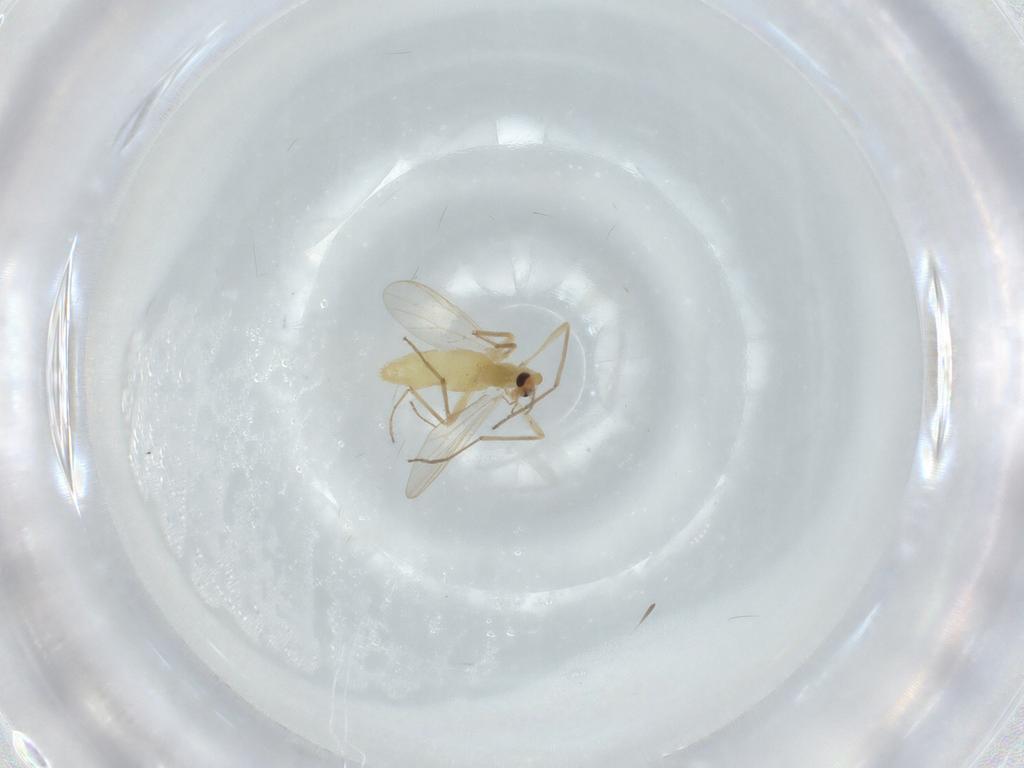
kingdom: Animalia
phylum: Arthropoda
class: Insecta
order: Diptera
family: Chironomidae
